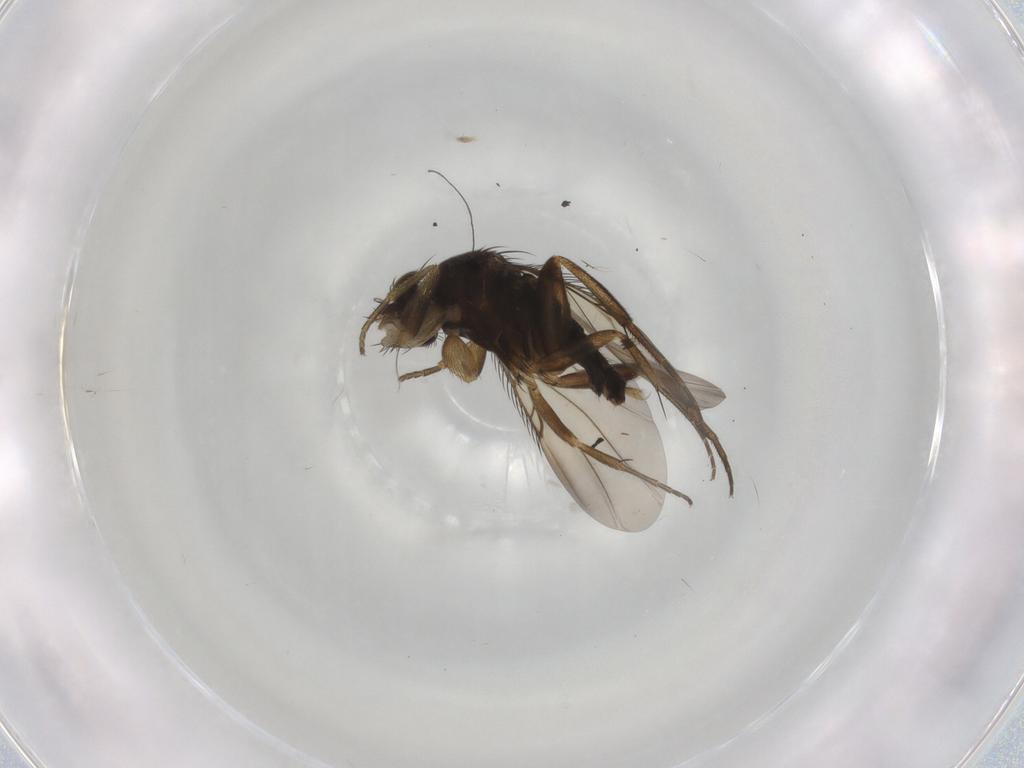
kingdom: Animalia
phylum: Arthropoda
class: Insecta
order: Diptera
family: Phoridae
